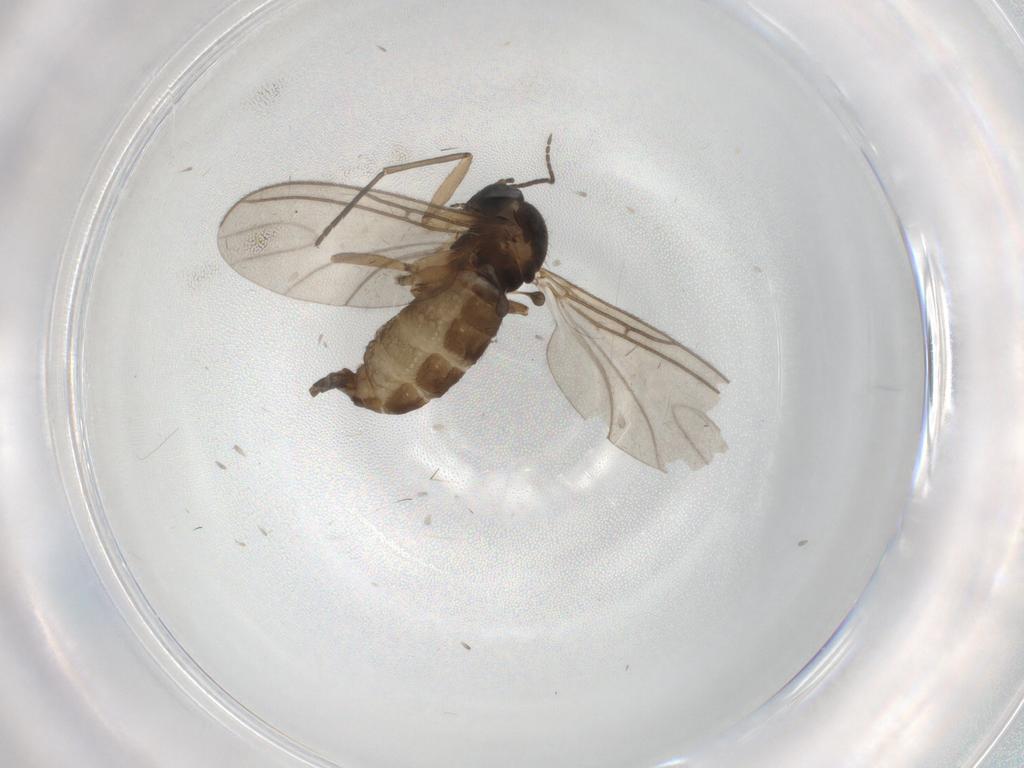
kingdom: Animalia
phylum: Arthropoda
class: Insecta
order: Diptera
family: Sciaridae
